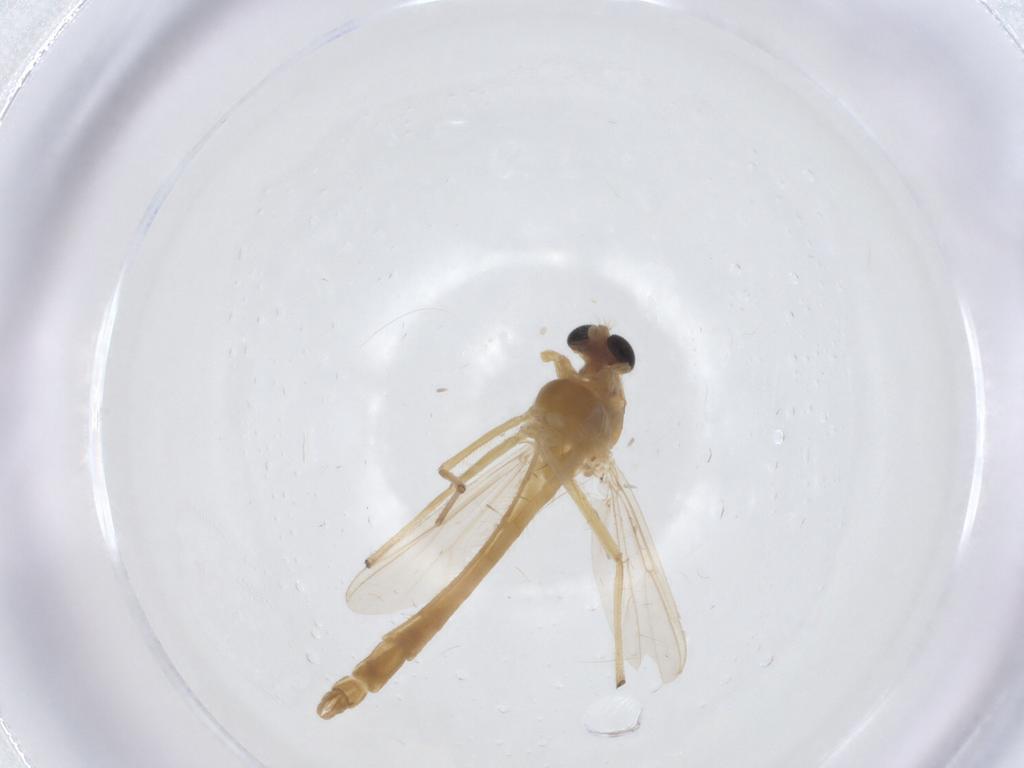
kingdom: Animalia
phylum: Arthropoda
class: Insecta
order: Diptera
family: Chironomidae
